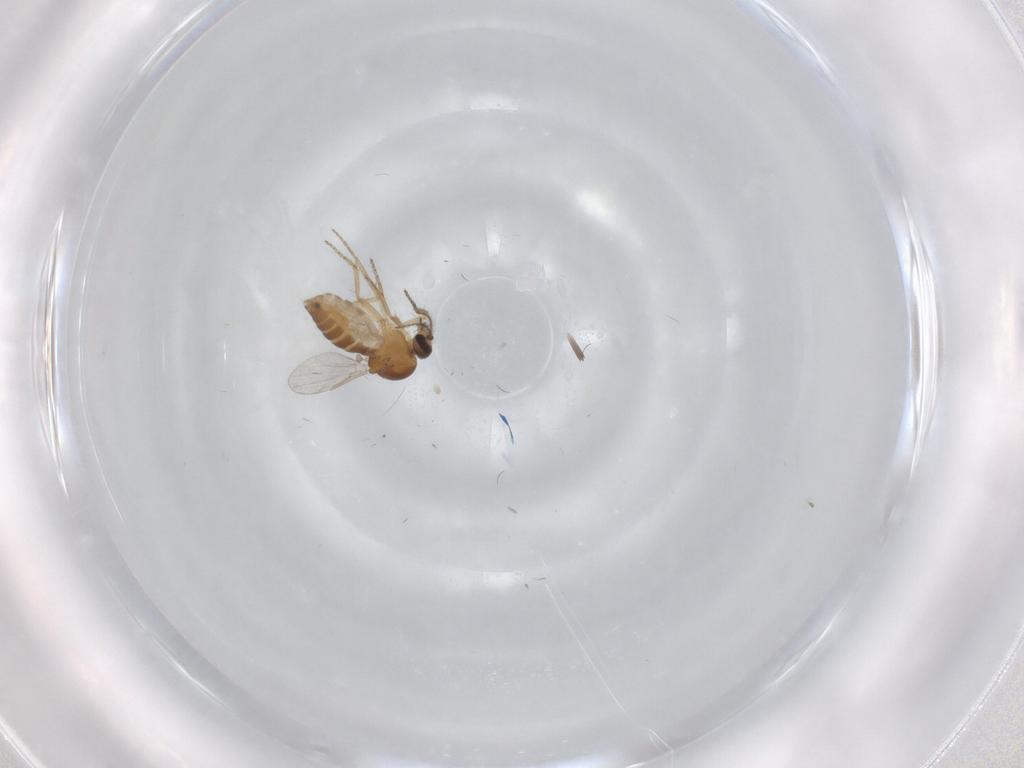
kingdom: Animalia
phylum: Arthropoda
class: Insecta
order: Diptera
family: Ceratopogonidae
